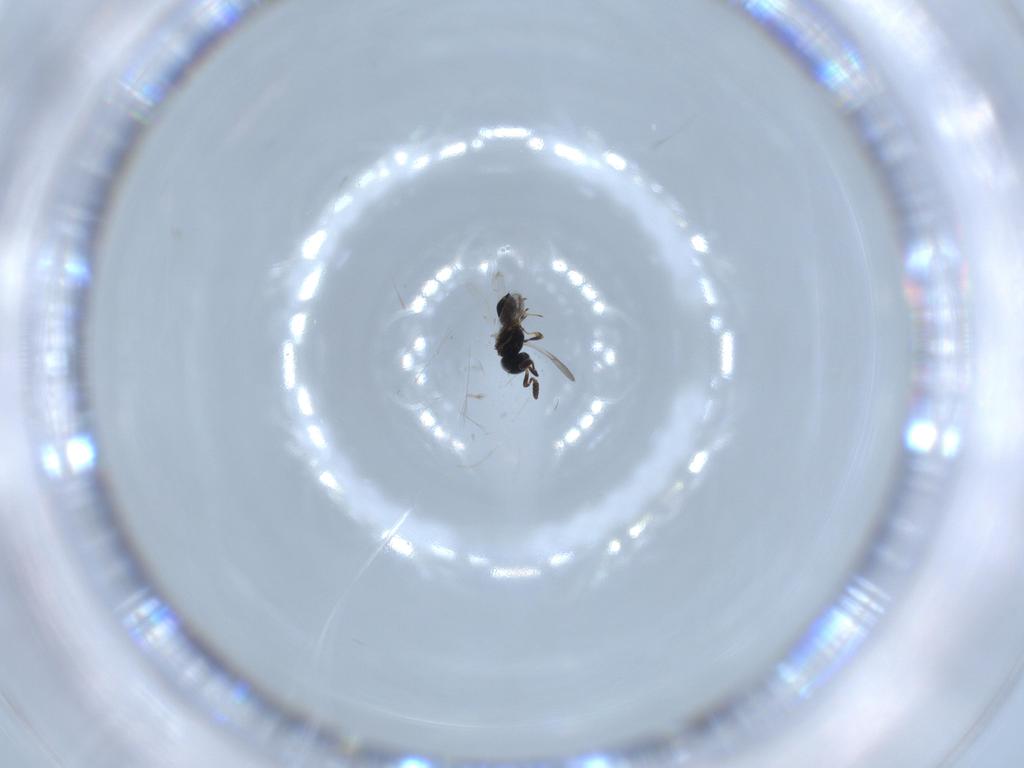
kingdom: Animalia
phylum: Arthropoda
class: Insecta
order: Hymenoptera
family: Scelionidae
